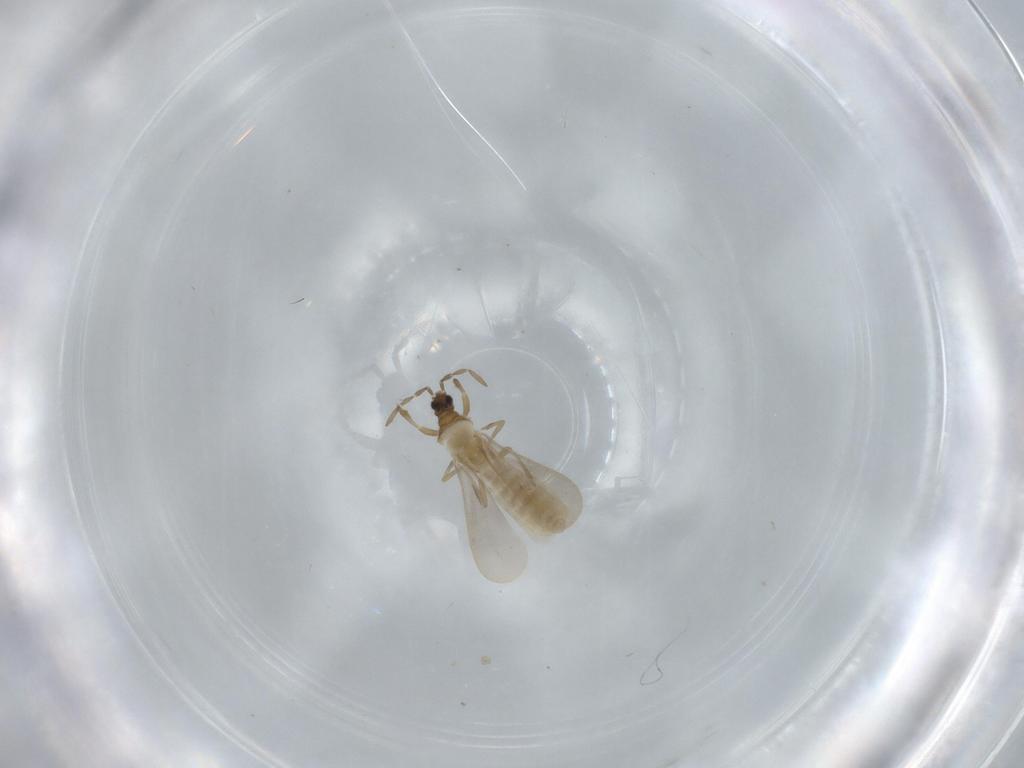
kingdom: Animalia
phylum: Arthropoda
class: Insecta
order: Hemiptera
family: Enicocephalidae
